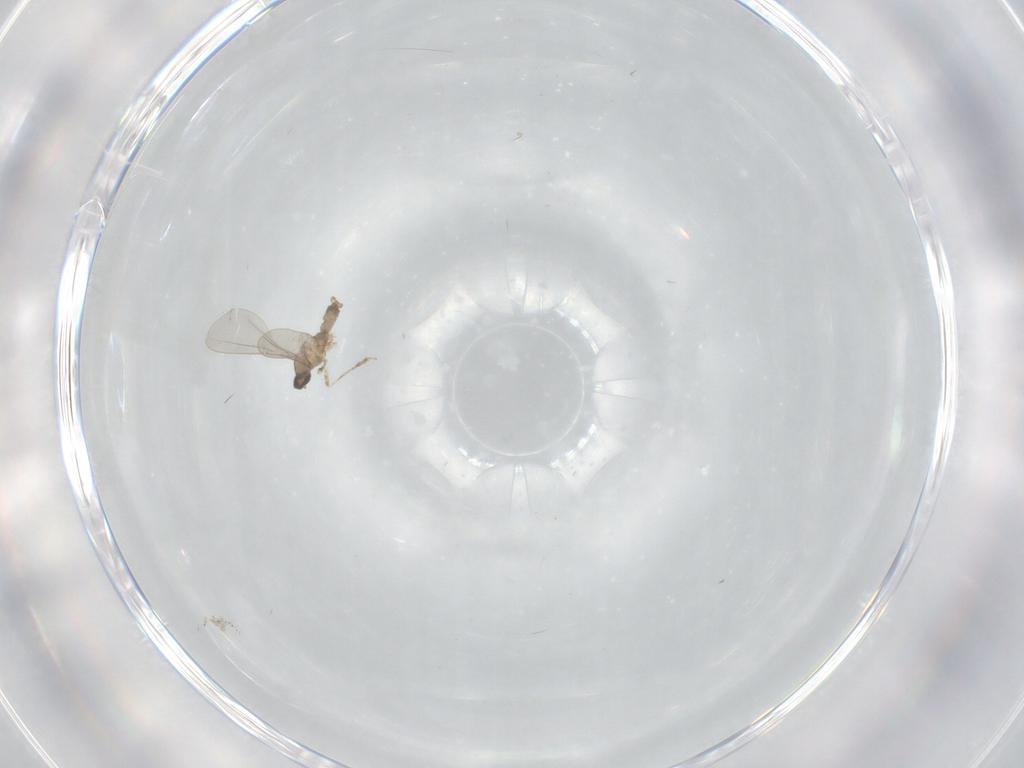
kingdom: Animalia
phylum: Arthropoda
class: Insecta
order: Diptera
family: Cecidomyiidae
